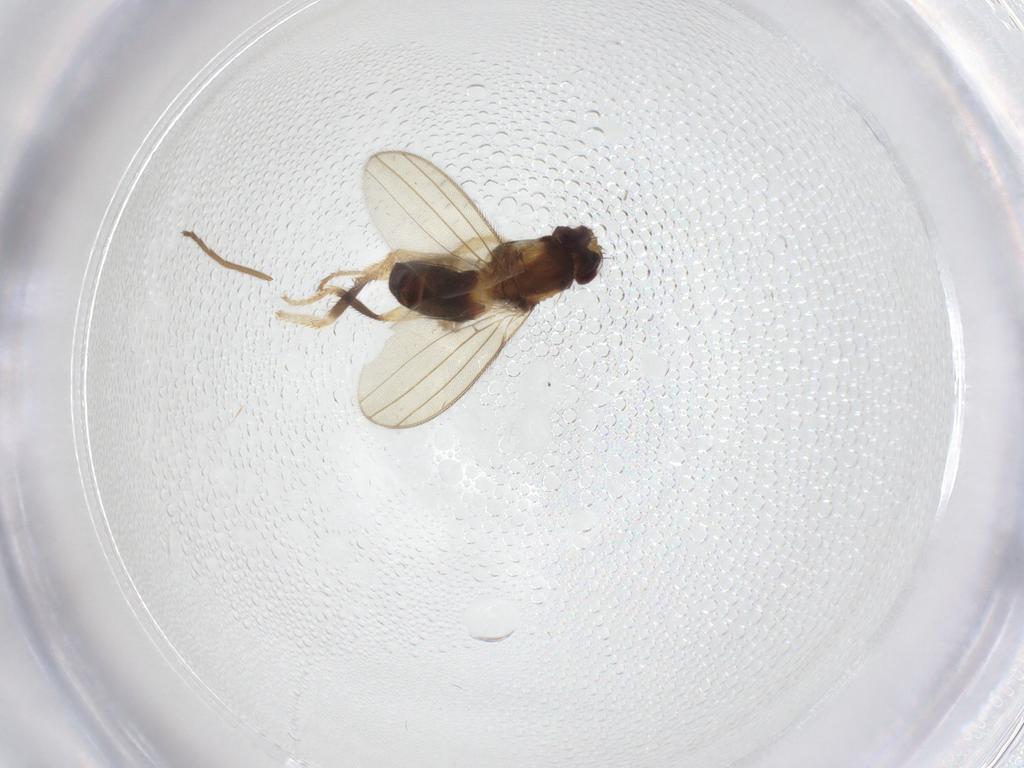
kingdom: Animalia
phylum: Arthropoda
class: Insecta
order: Diptera
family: Periscelididae
